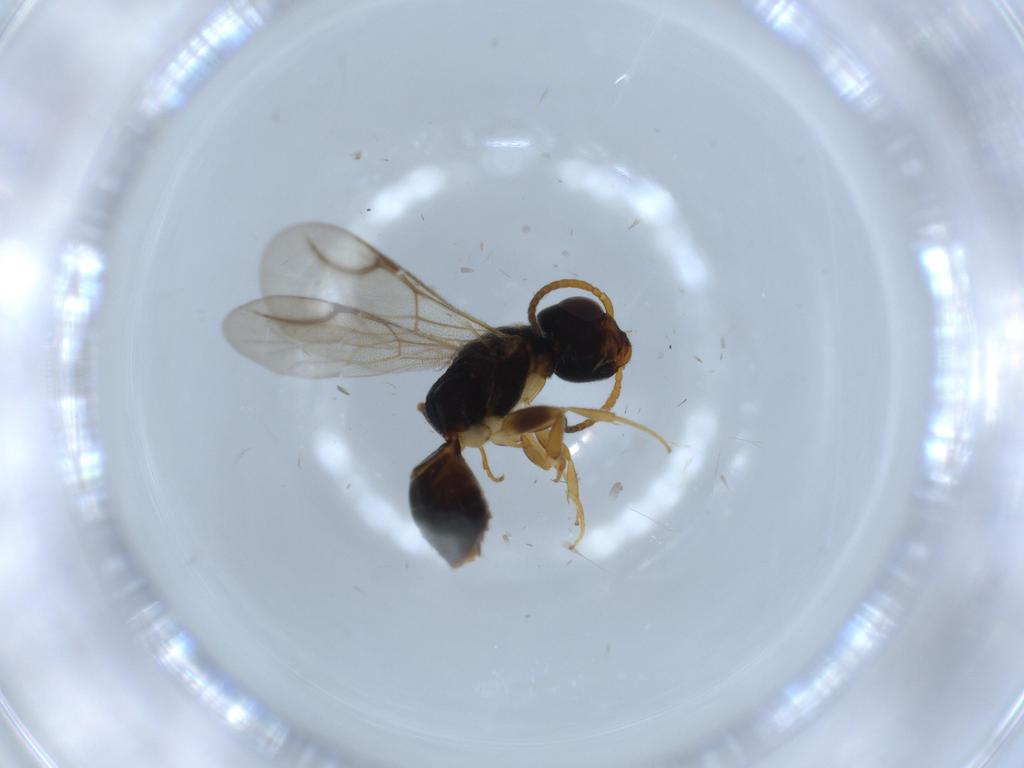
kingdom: Animalia
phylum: Arthropoda
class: Insecta
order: Hymenoptera
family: Bethylidae
